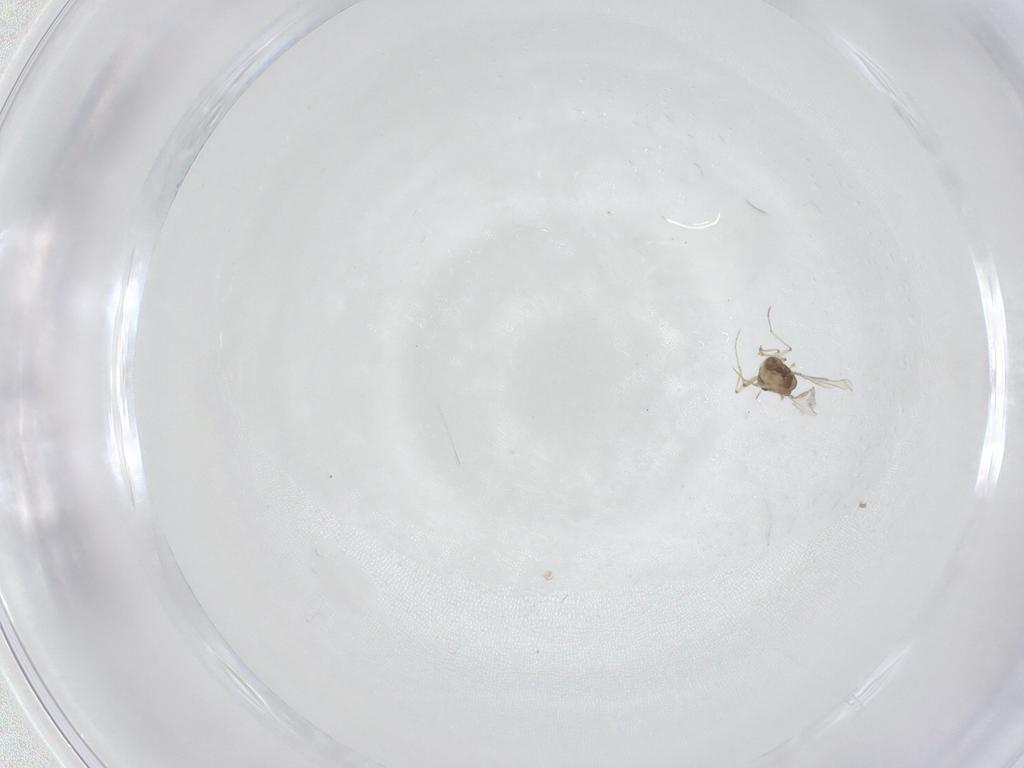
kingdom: Animalia
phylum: Arthropoda
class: Insecta
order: Diptera
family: Chironomidae
